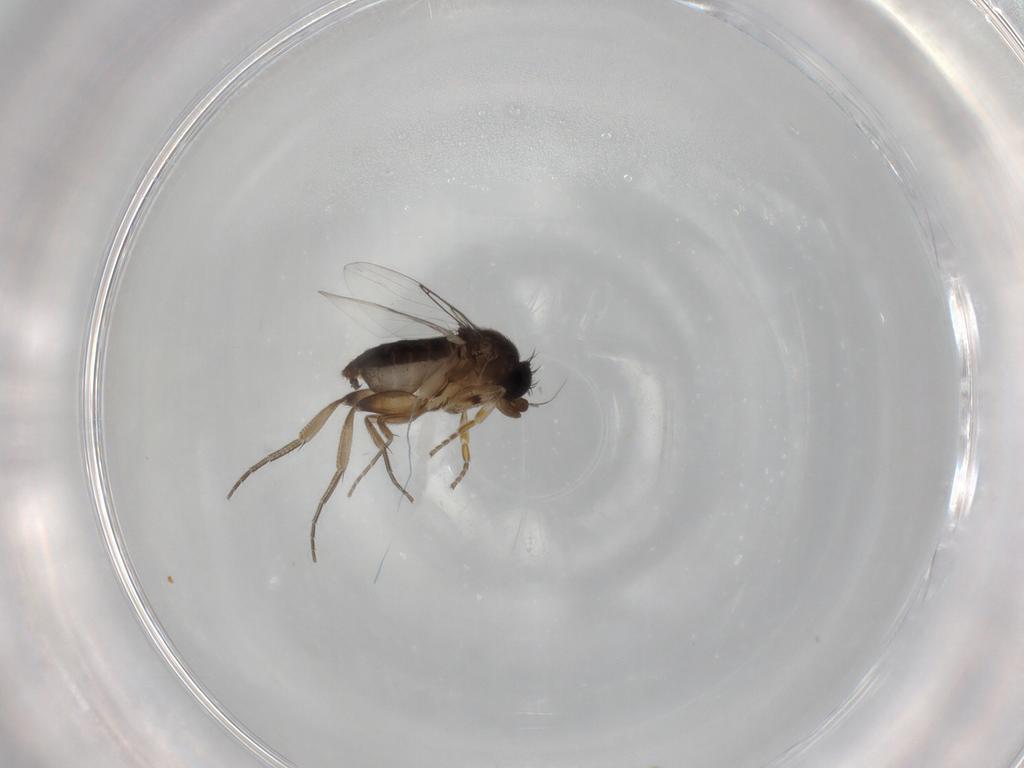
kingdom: Animalia
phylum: Arthropoda
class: Insecta
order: Diptera
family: Phoridae
